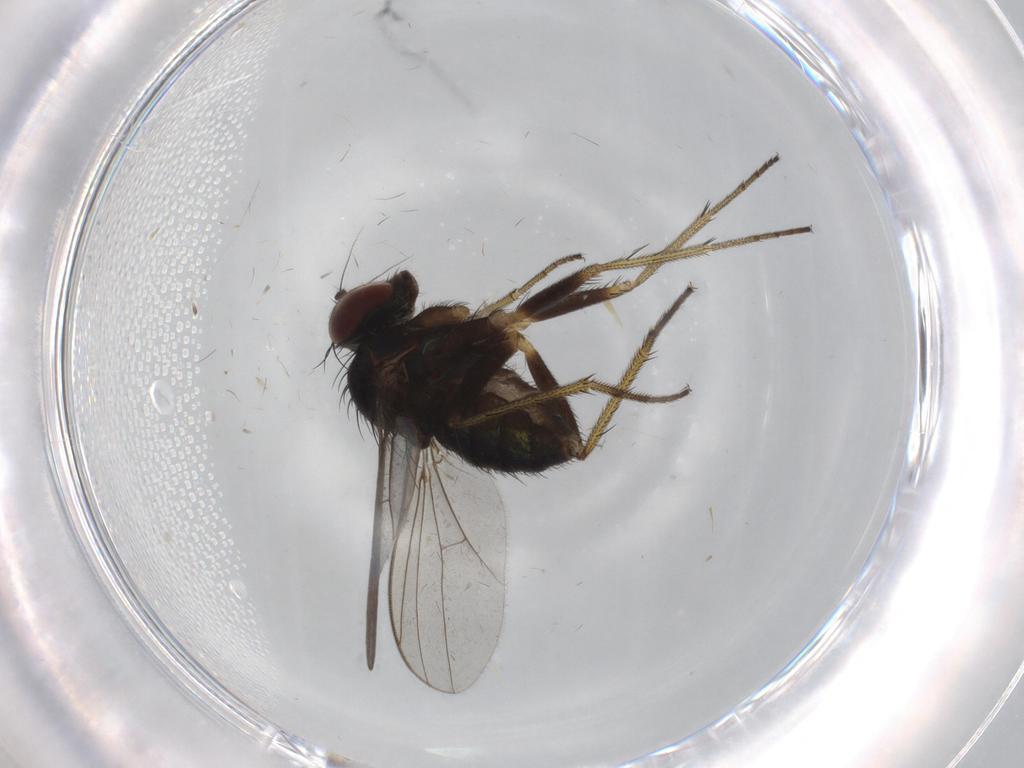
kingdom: Animalia
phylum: Arthropoda
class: Insecta
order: Diptera
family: Dolichopodidae
